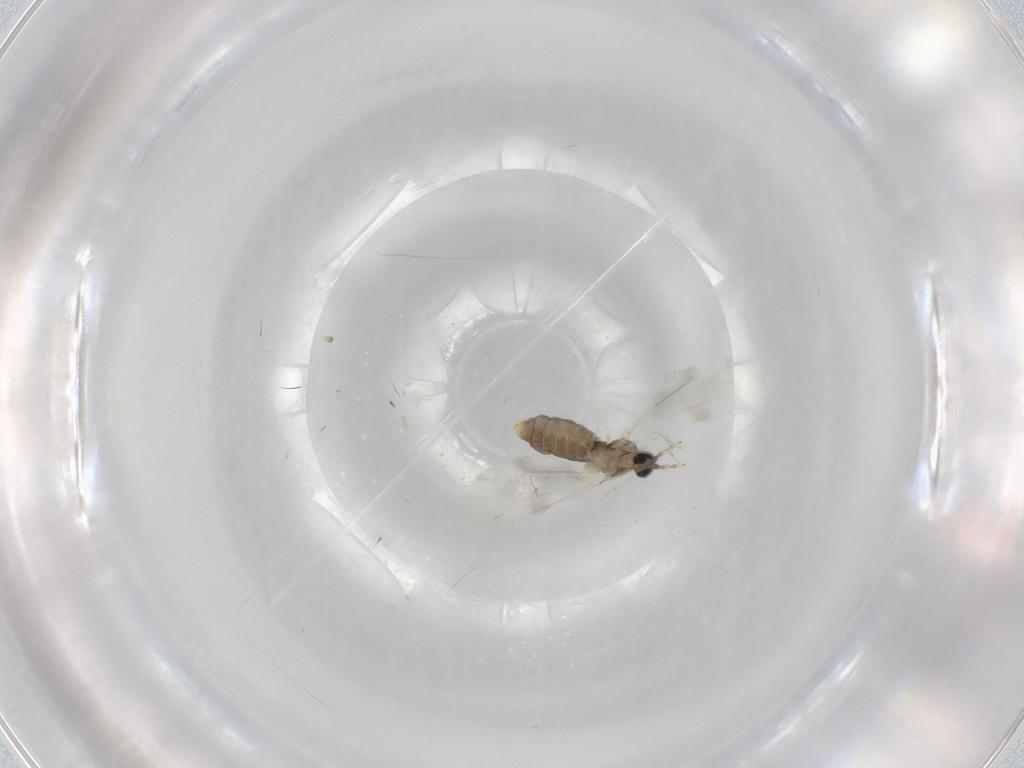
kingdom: Animalia
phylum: Arthropoda
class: Insecta
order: Diptera
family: Cecidomyiidae
